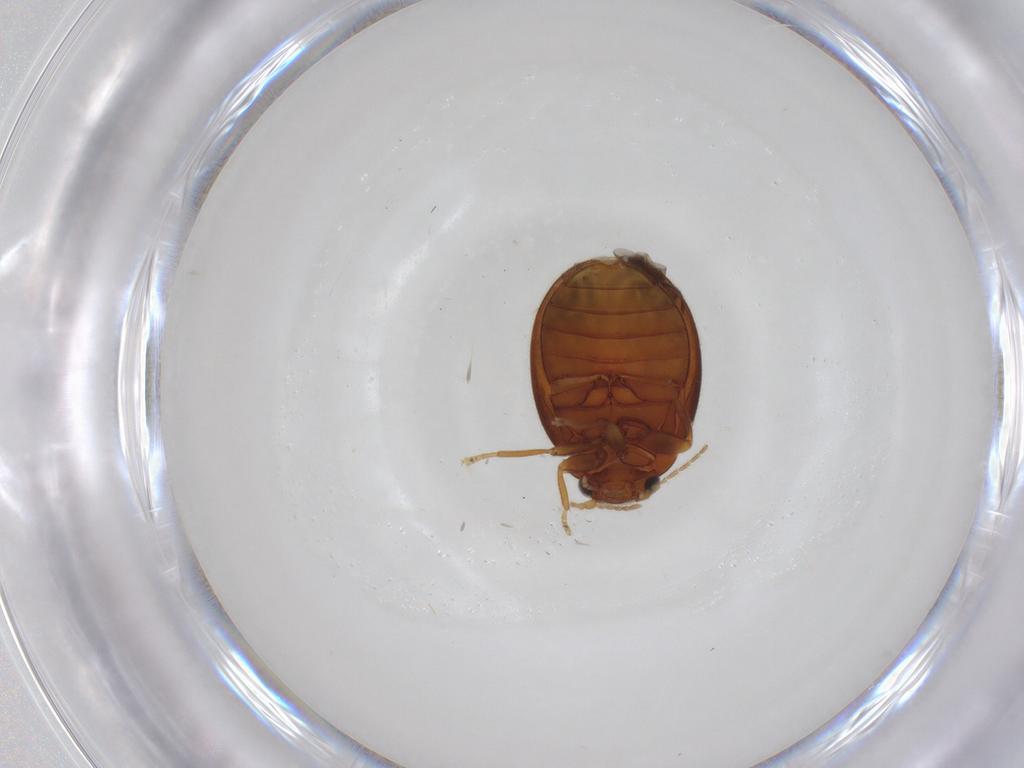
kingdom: Animalia
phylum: Arthropoda
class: Insecta
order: Coleoptera
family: Scirtidae
